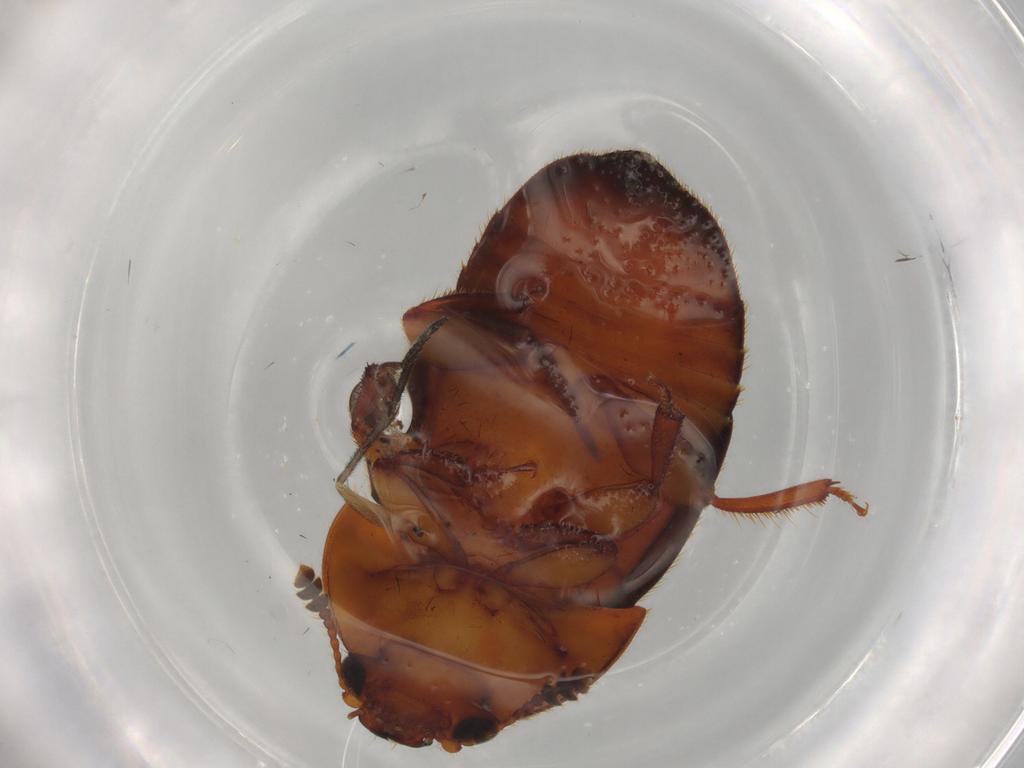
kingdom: Animalia
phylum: Arthropoda
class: Insecta
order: Coleoptera
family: Nitidulidae
